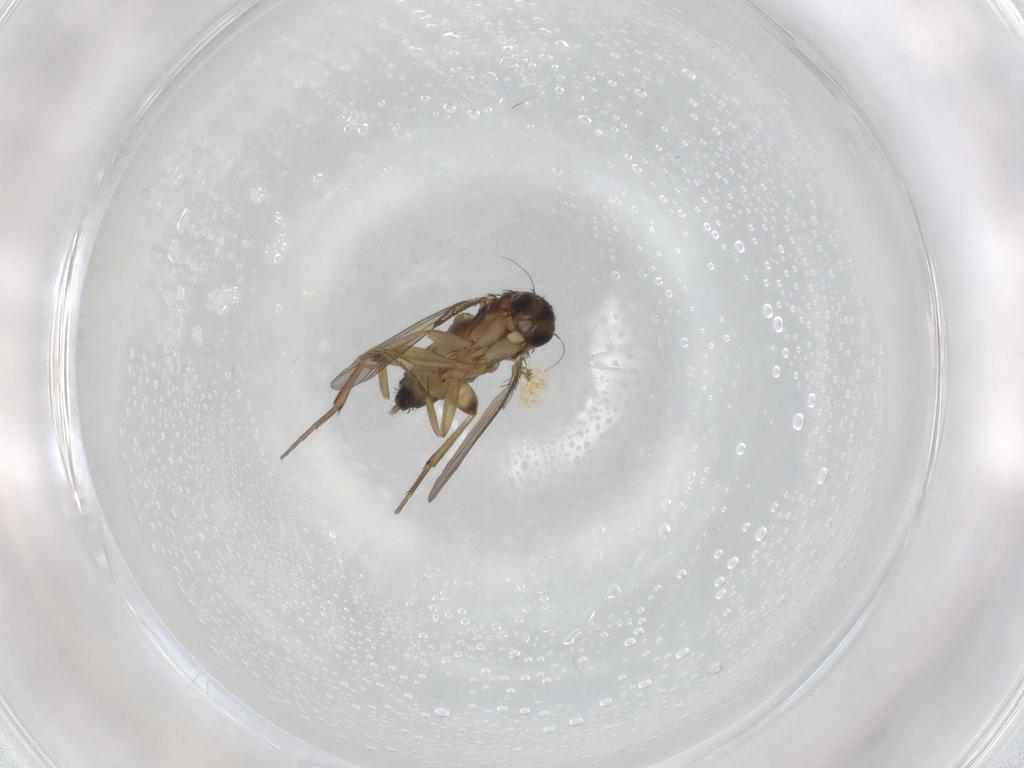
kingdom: Animalia
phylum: Arthropoda
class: Insecta
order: Diptera
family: Phoridae
